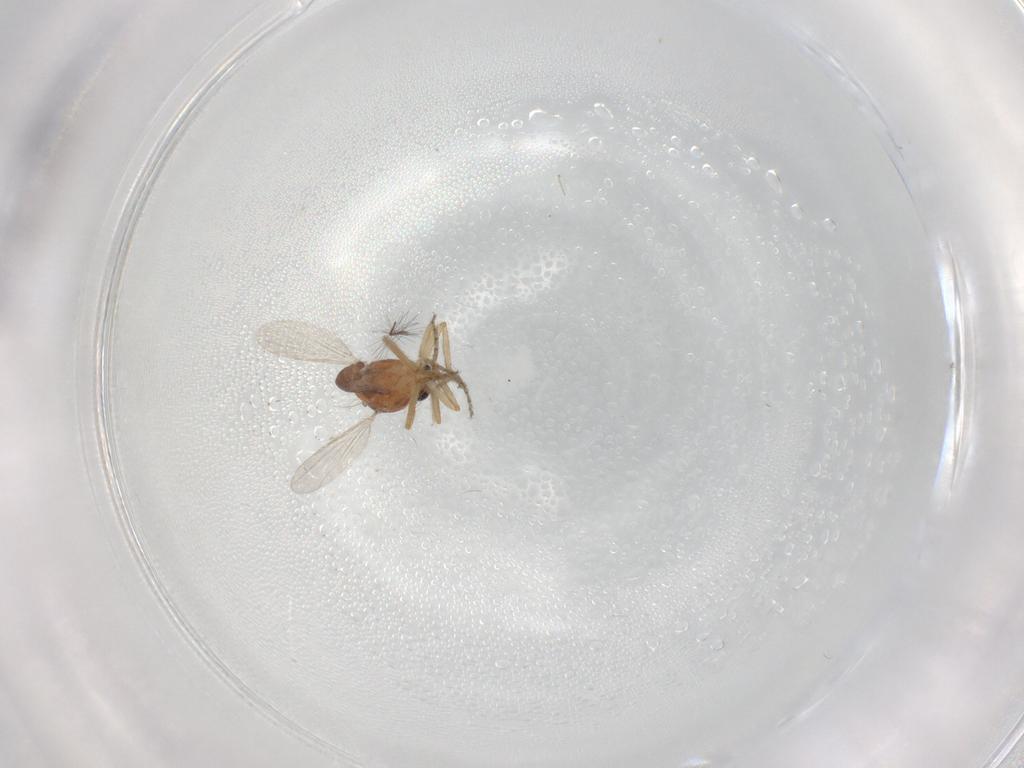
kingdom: Animalia
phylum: Arthropoda
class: Insecta
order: Diptera
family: Ceratopogonidae
